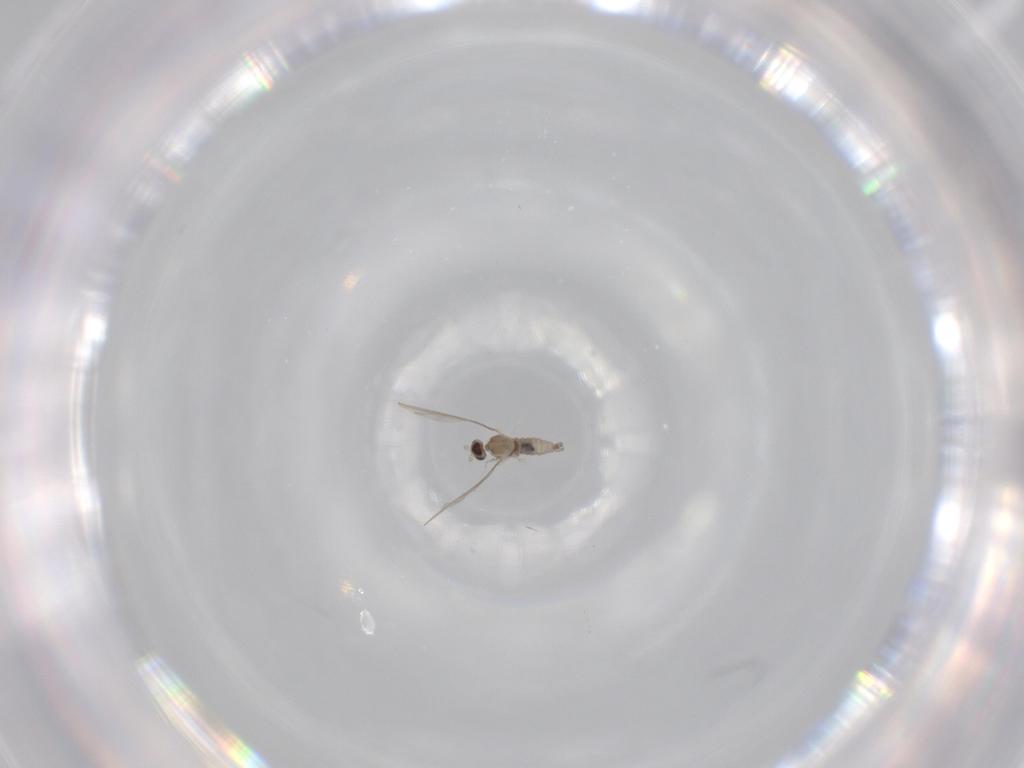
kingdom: Animalia
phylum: Arthropoda
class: Insecta
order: Diptera
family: Cecidomyiidae
